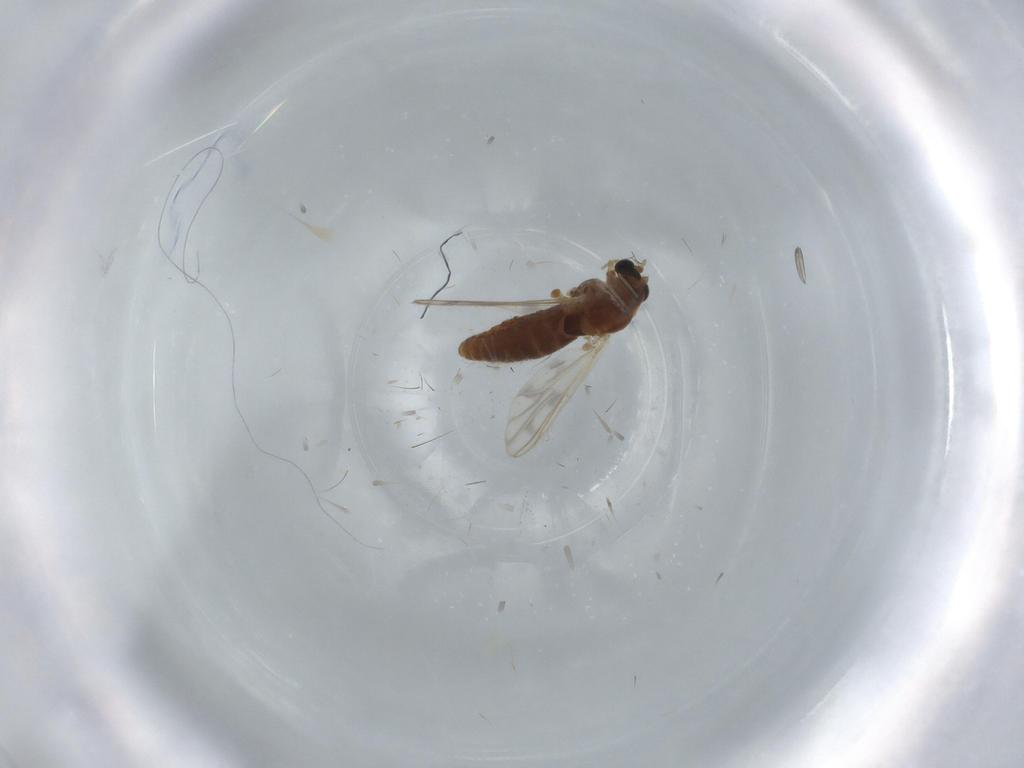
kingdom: Animalia
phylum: Arthropoda
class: Insecta
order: Diptera
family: Chironomidae
